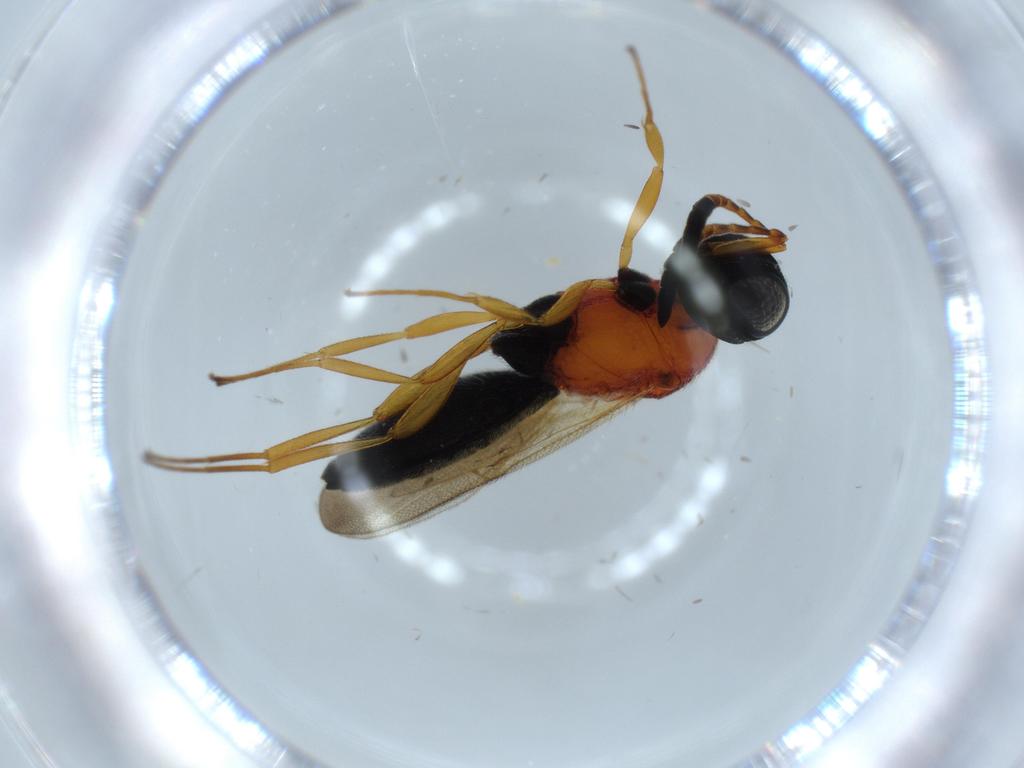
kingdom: Animalia
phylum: Arthropoda
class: Insecta
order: Hymenoptera
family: Scelionidae
